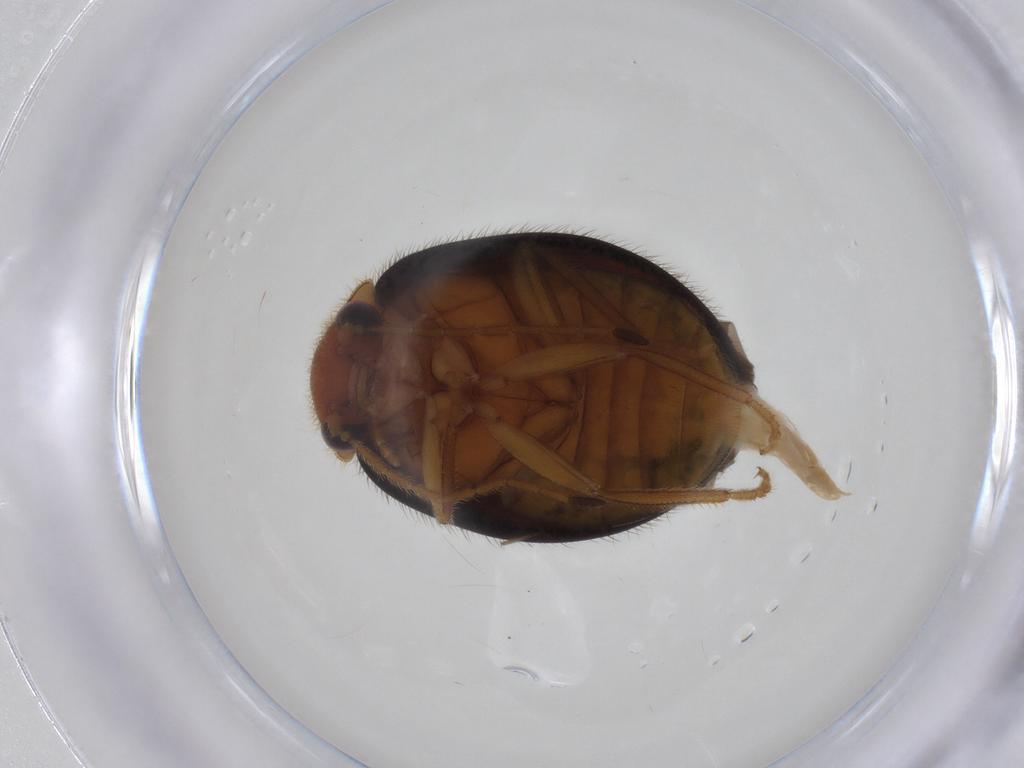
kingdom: Animalia
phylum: Arthropoda
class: Insecta
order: Coleoptera
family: Scirtidae
